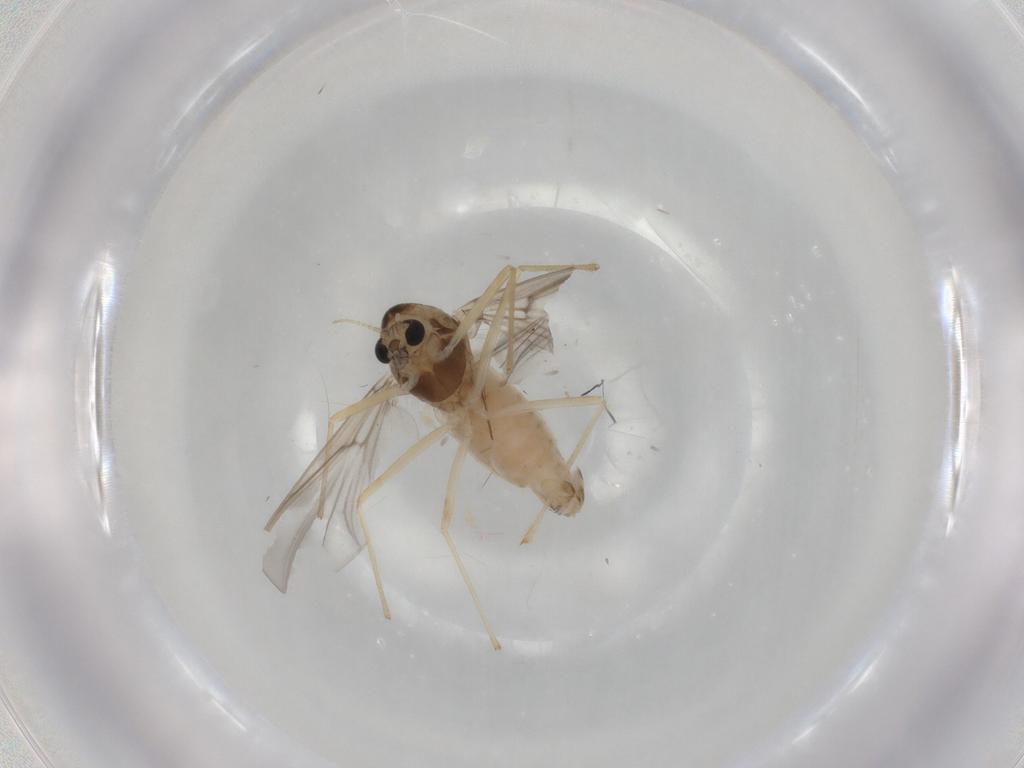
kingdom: Animalia
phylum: Arthropoda
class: Insecta
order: Diptera
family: Chironomidae
